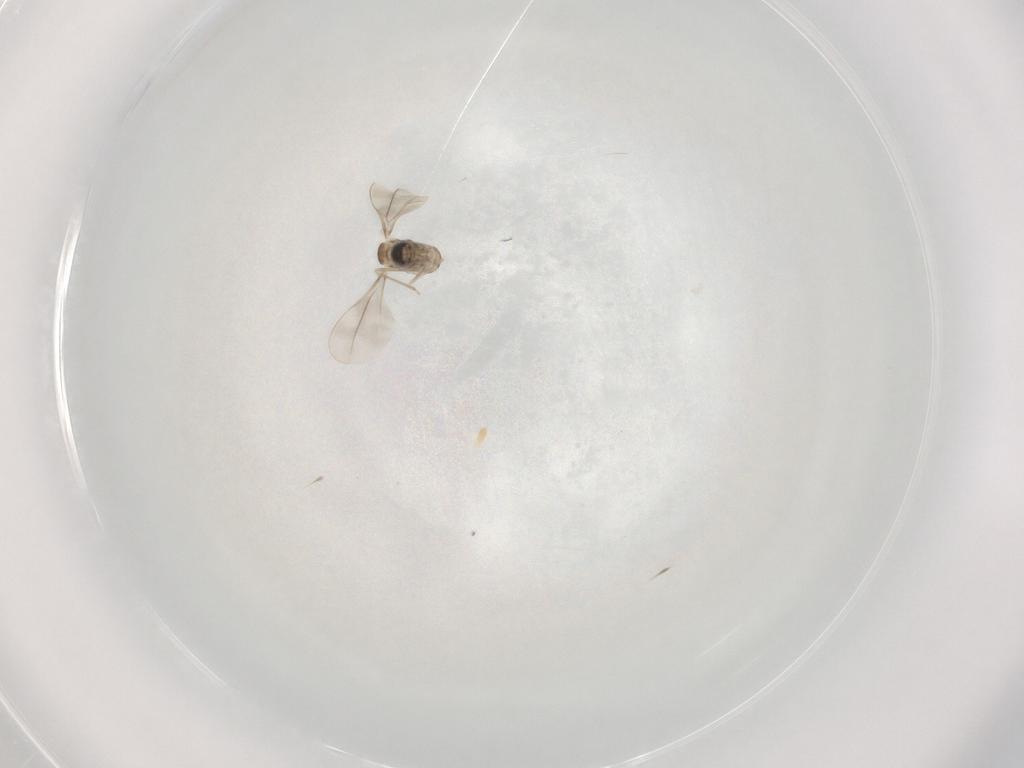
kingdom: Animalia
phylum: Arthropoda
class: Insecta
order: Diptera
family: Cecidomyiidae
